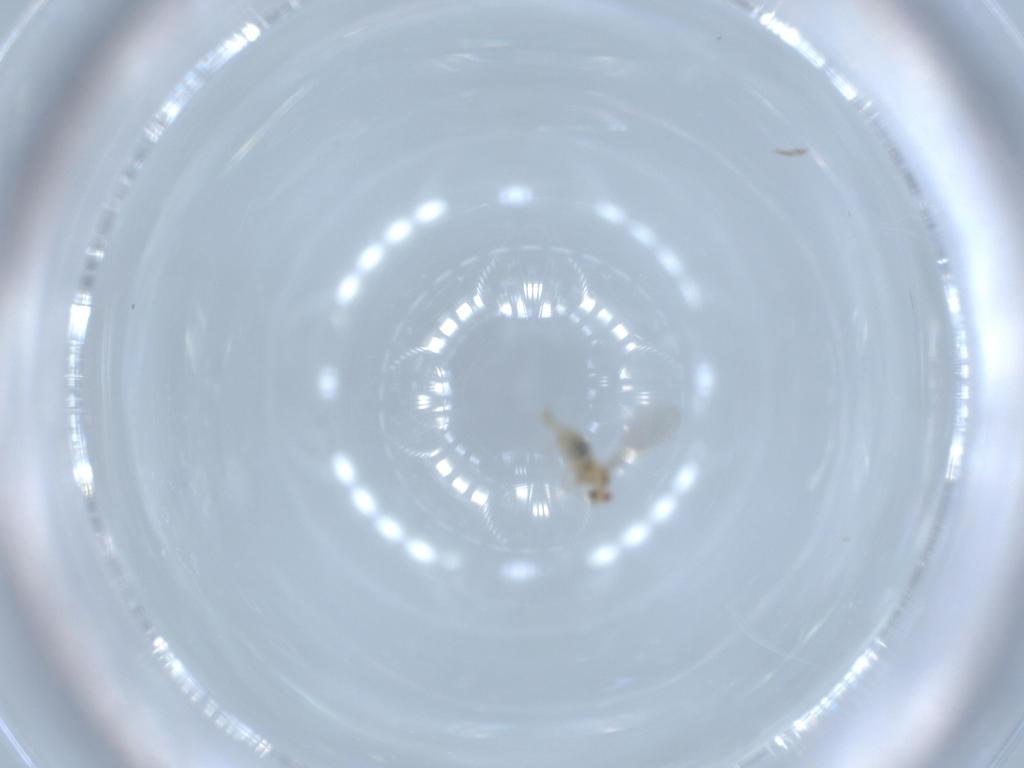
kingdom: Animalia
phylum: Arthropoda
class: Insecta
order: Diptera
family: Cecidomyiidae
